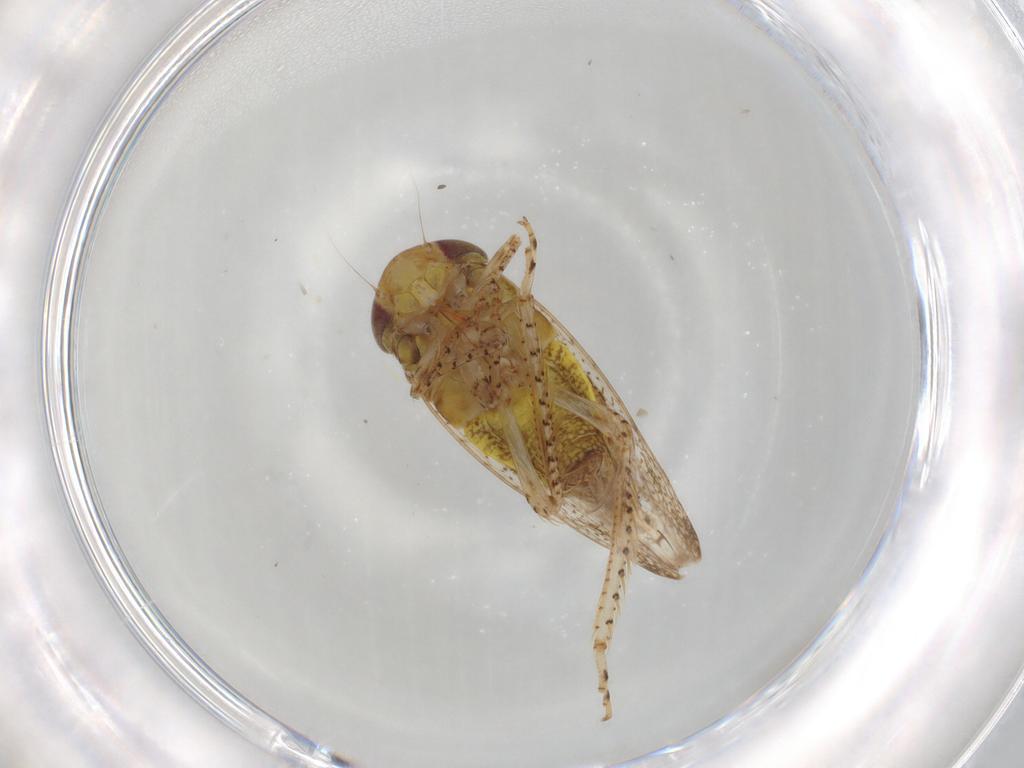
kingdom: Animalia
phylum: Arthropoda
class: Insecta
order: Hemiptera
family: Cicadellidae
